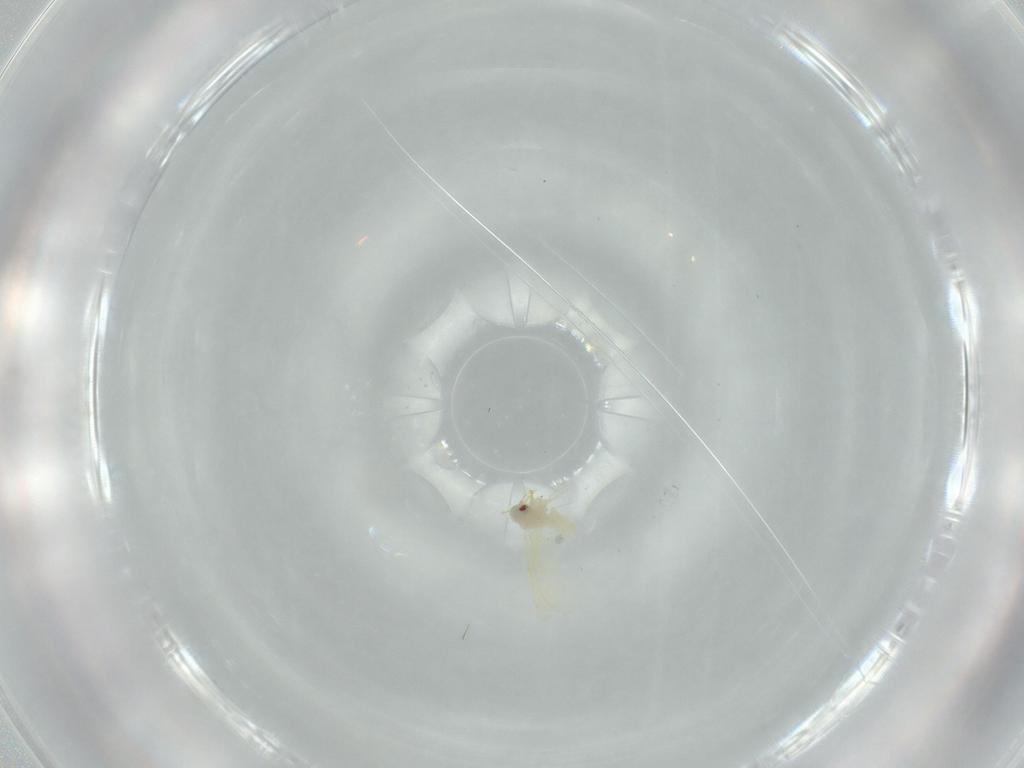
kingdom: Animalia
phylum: Arthropoda
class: Insecta
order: Hemiptera
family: Aleyrodidae
